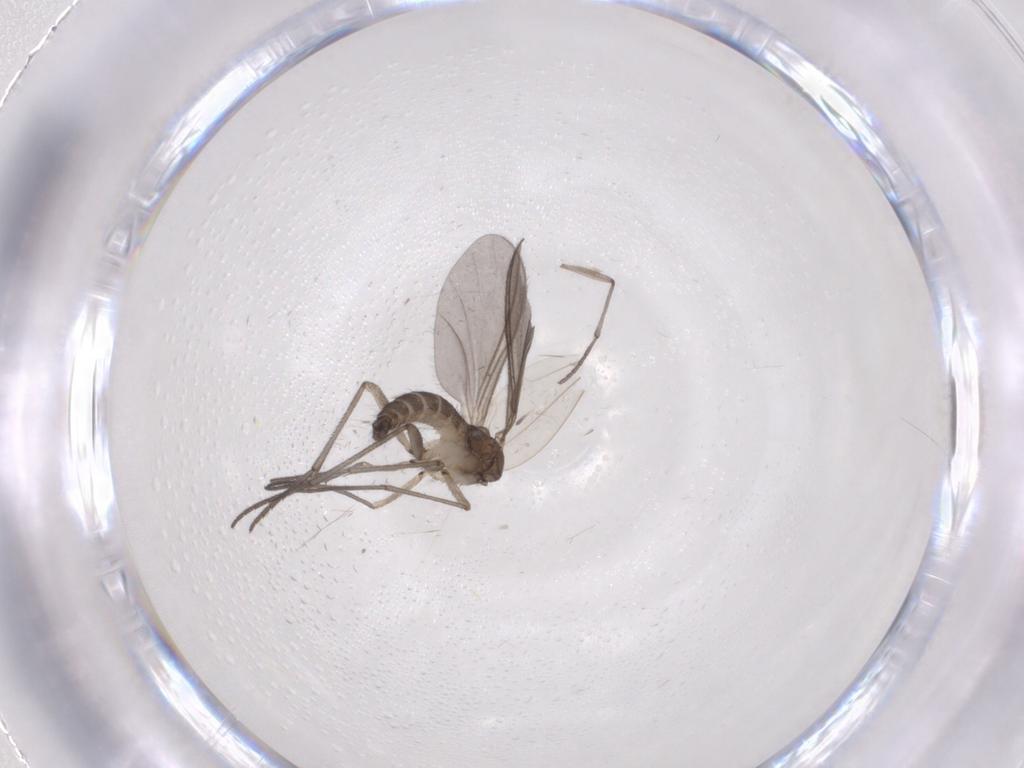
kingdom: Animalia
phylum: Arthropoda
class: Insecta
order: Diptera
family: Sciaridae
